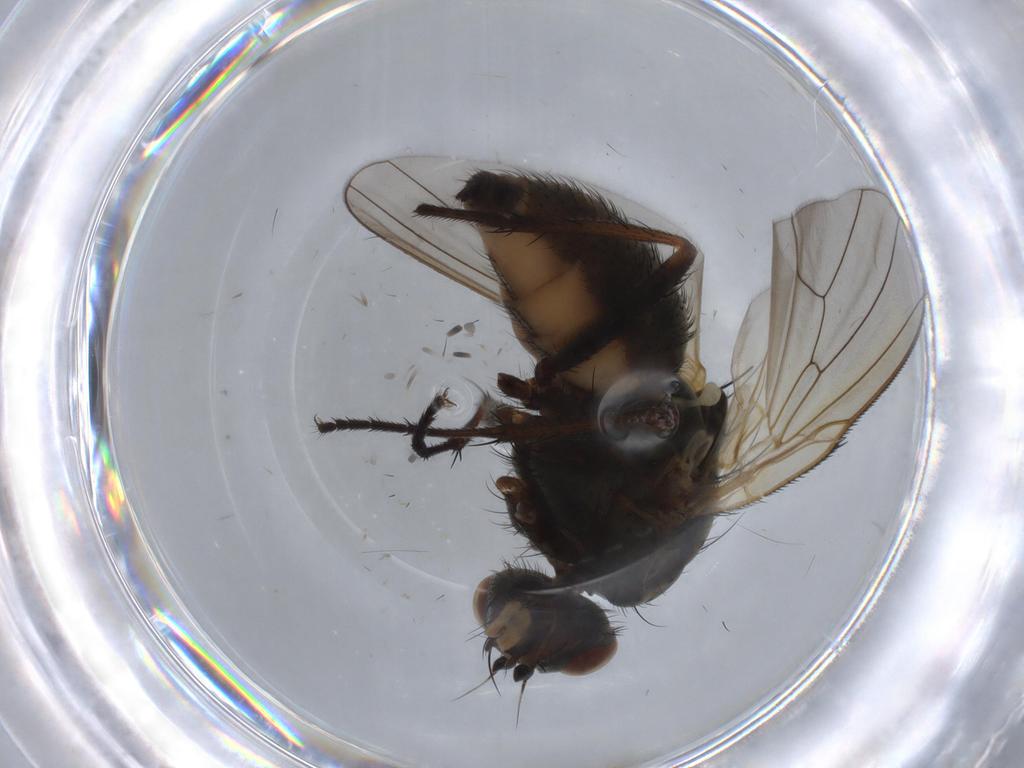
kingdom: Animalia
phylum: Arthropoda
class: Insecta
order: Diptera
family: Anthomyiidae
